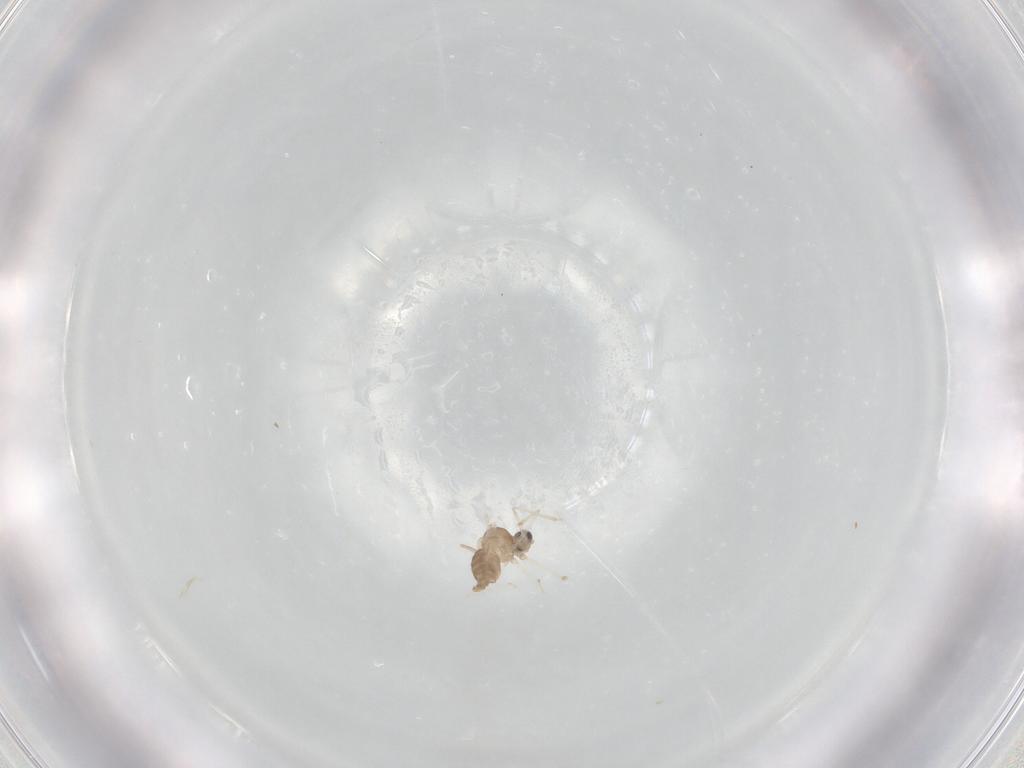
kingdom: Animalia
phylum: Arthropoda
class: Insecta
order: Diptera
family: Cecidomyiidae
